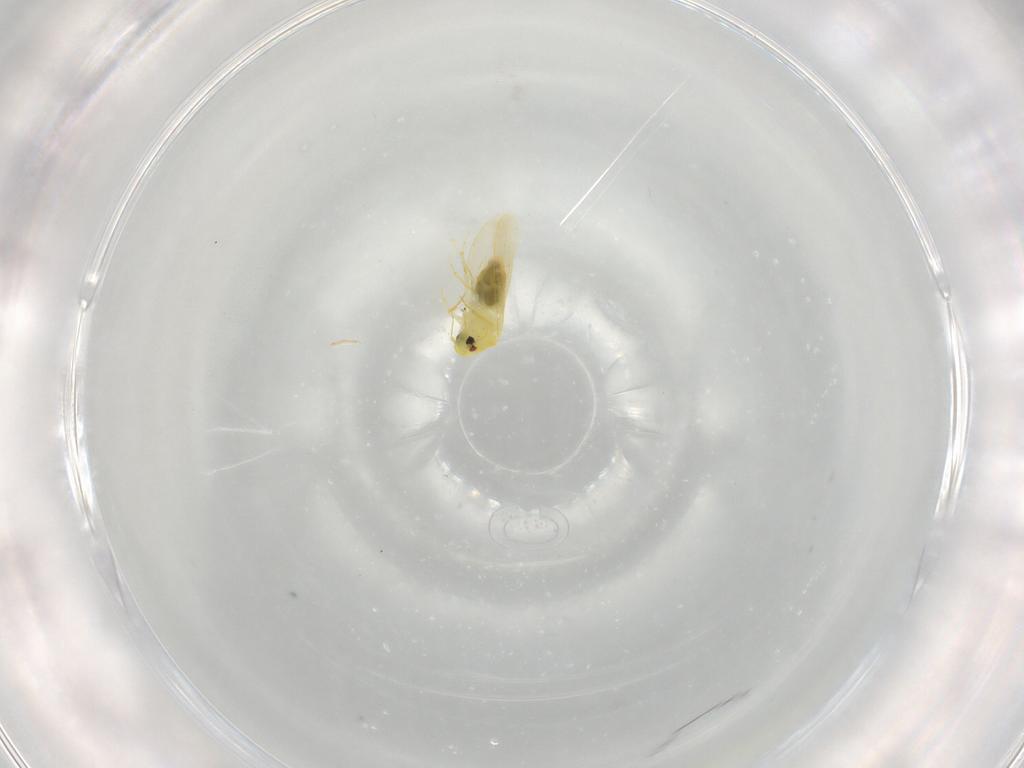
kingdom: Animalia
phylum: Arthropoda
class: Insecta
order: Hemiptera
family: Aleyrodidae
